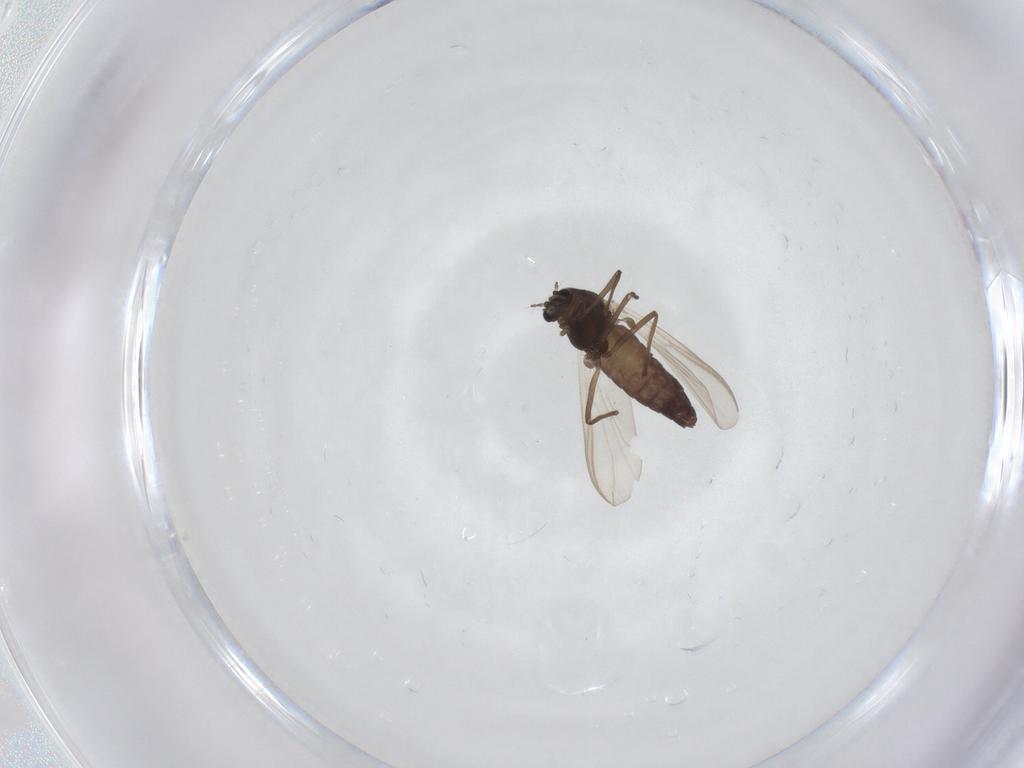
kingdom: Animalia
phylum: Arthropoda
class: Insecta
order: Diptera
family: Chironomidae
